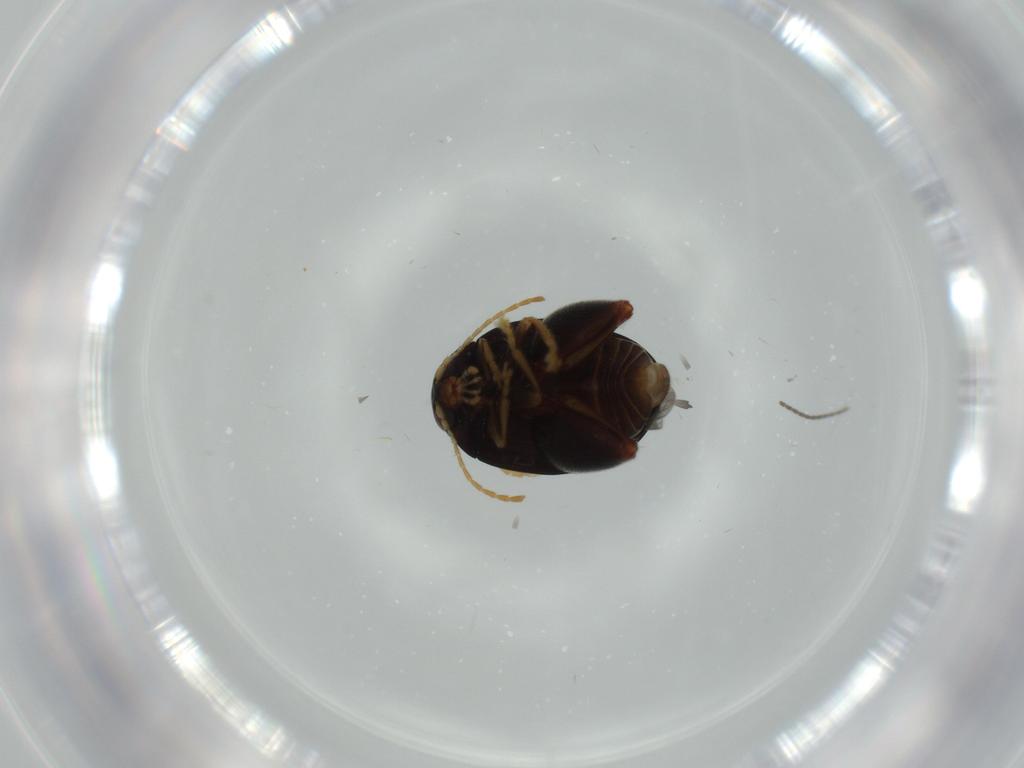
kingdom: Animalia
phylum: Arthropoda
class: Insecta
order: Coleoptera
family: Chrysomelidae
